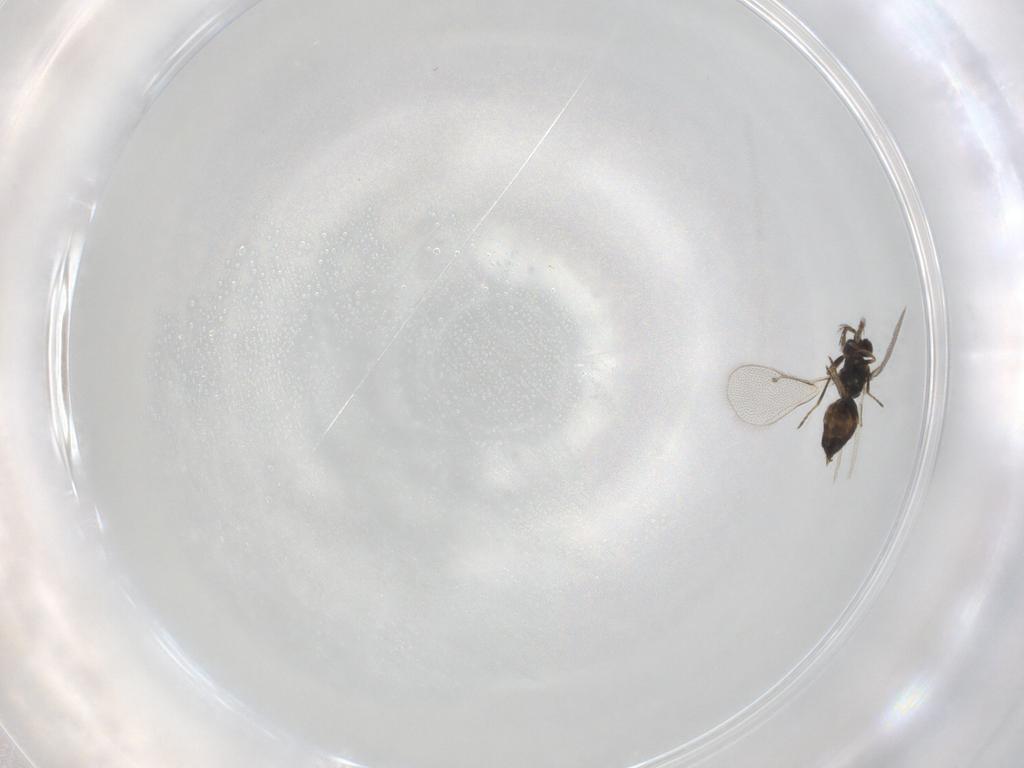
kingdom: Animalia
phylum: Arthropoda
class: Insecta
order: Hymenoptera
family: Eulophidae
